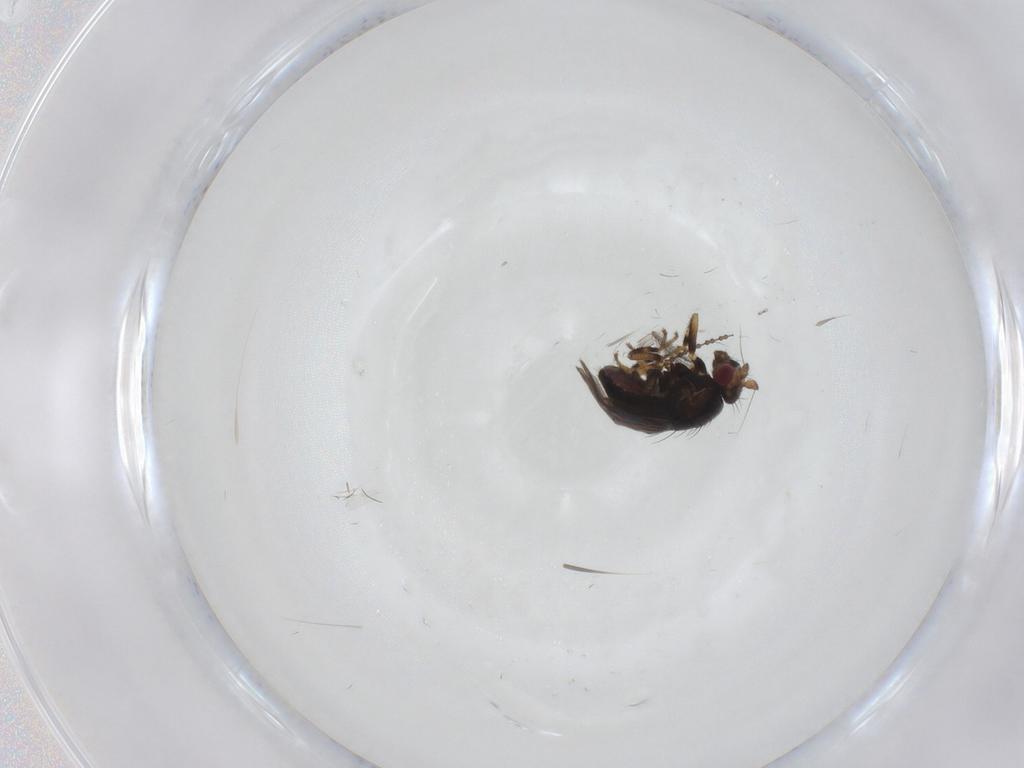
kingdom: Animalia
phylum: Arthropoda
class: Insecta
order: Diptera
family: Sphaeroceridae
